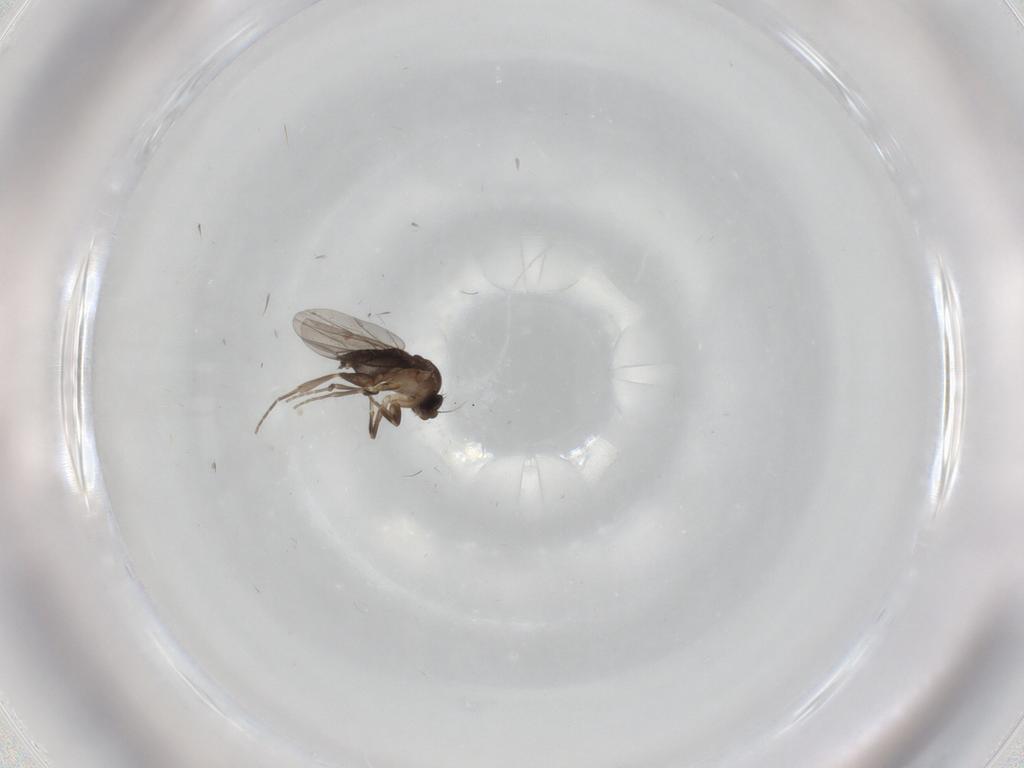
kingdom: Animalia
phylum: Arthropoda
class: Insecta
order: Diptera
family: Phoridae
